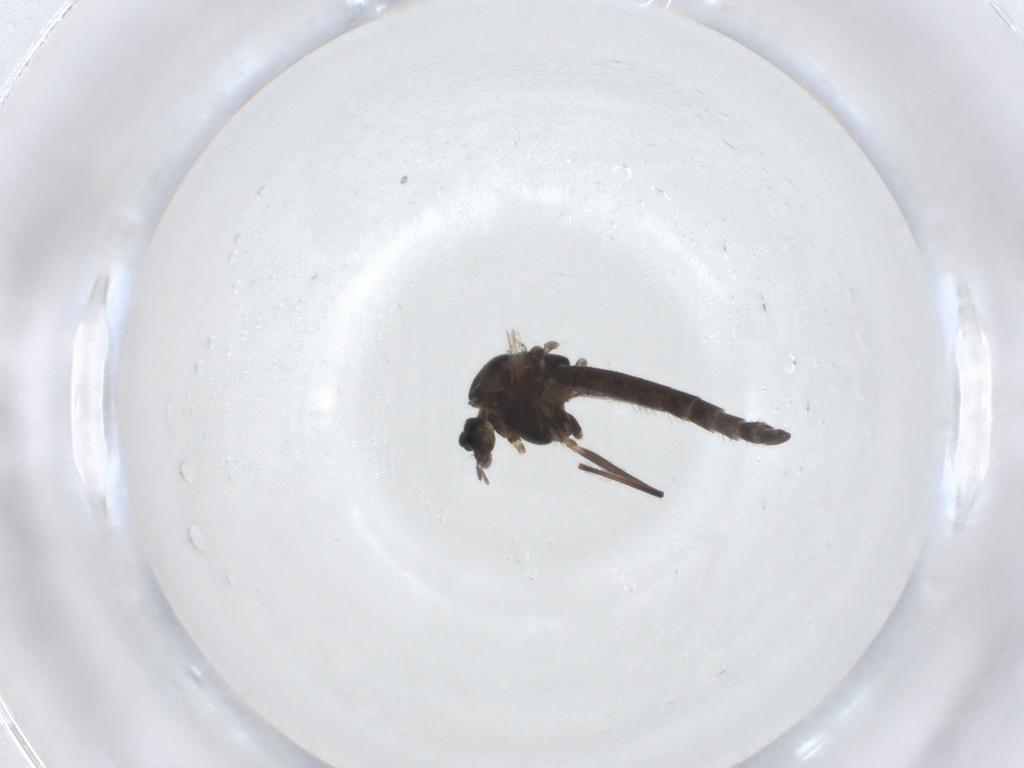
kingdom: Animalia
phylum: Arthropoda
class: Insecta
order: Diptera
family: Chironomidae
